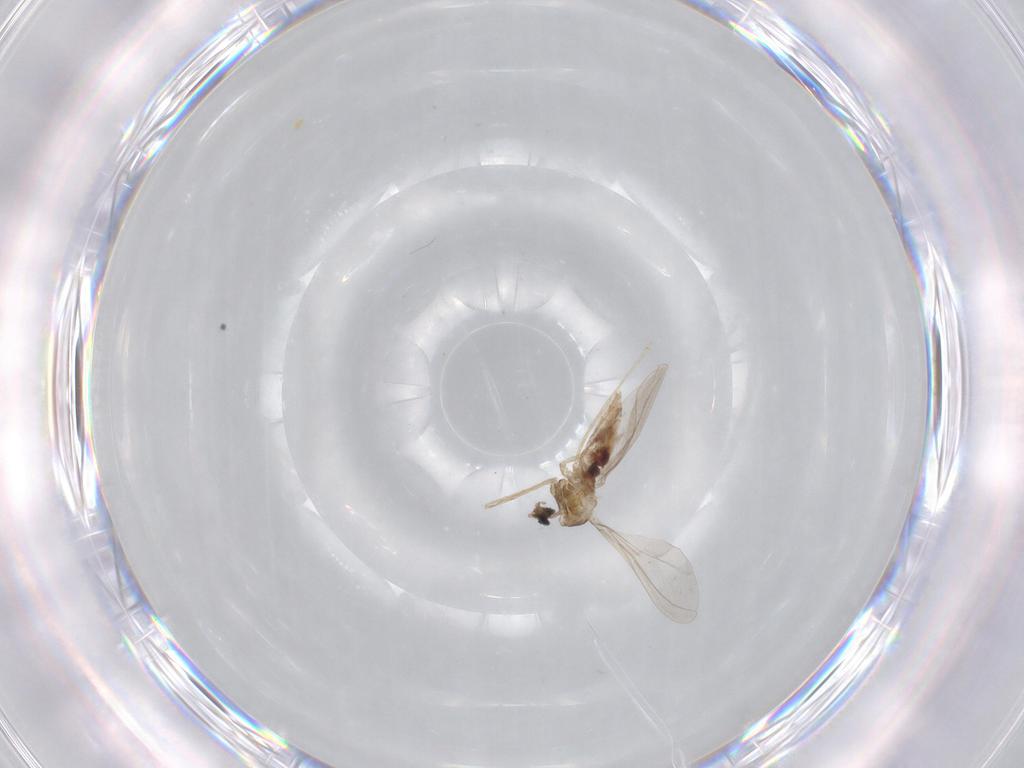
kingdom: Animalia
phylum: Arthropoda
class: Insecta
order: Diptera
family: Cecidomyiidae
